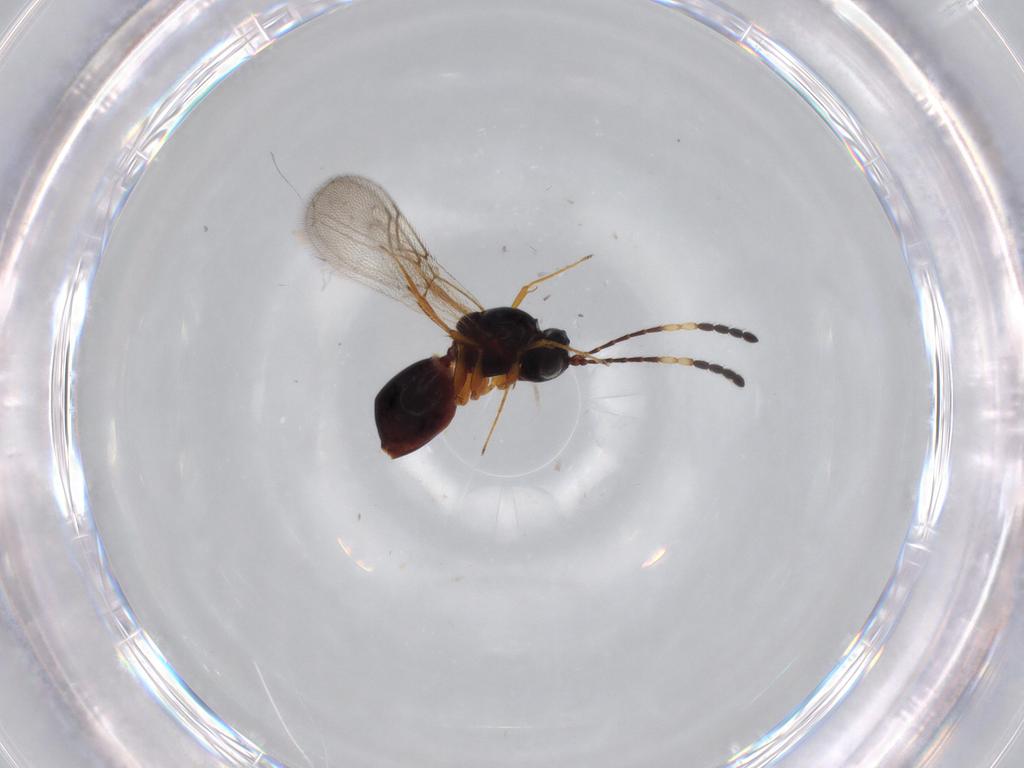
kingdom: Animalia
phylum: Arthropoda
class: Insecta
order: Hymenoptera
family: Figitidae
